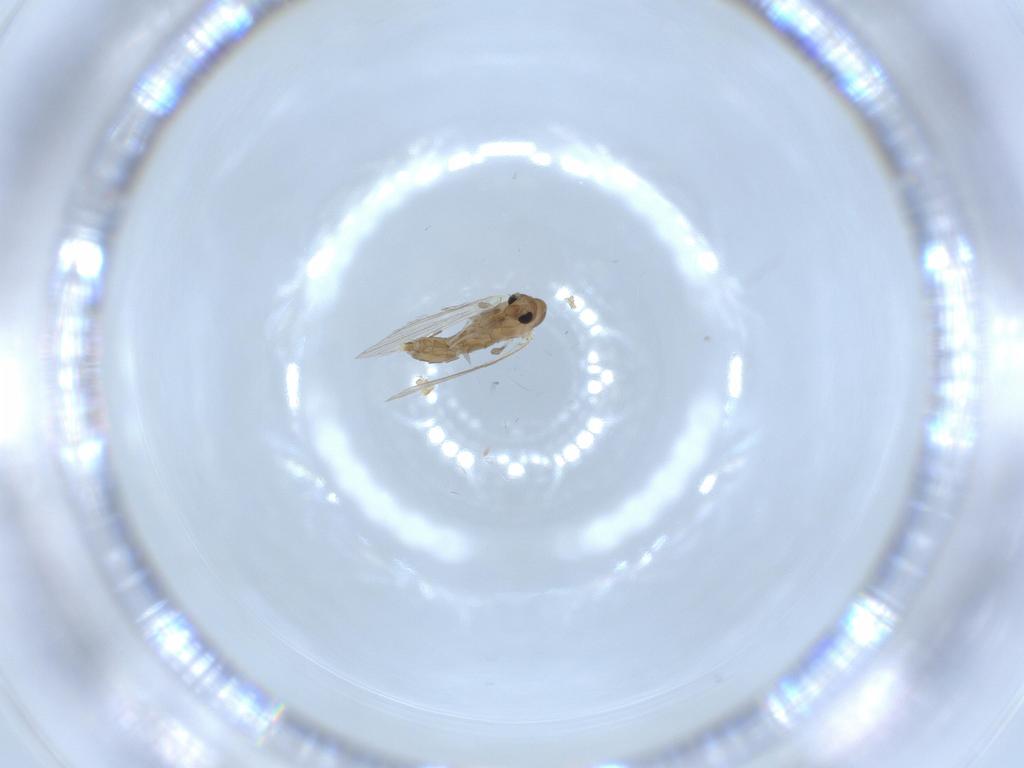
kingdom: Animalia
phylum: Arthropoda
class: Insecta
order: Diptera
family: Psychodidae
